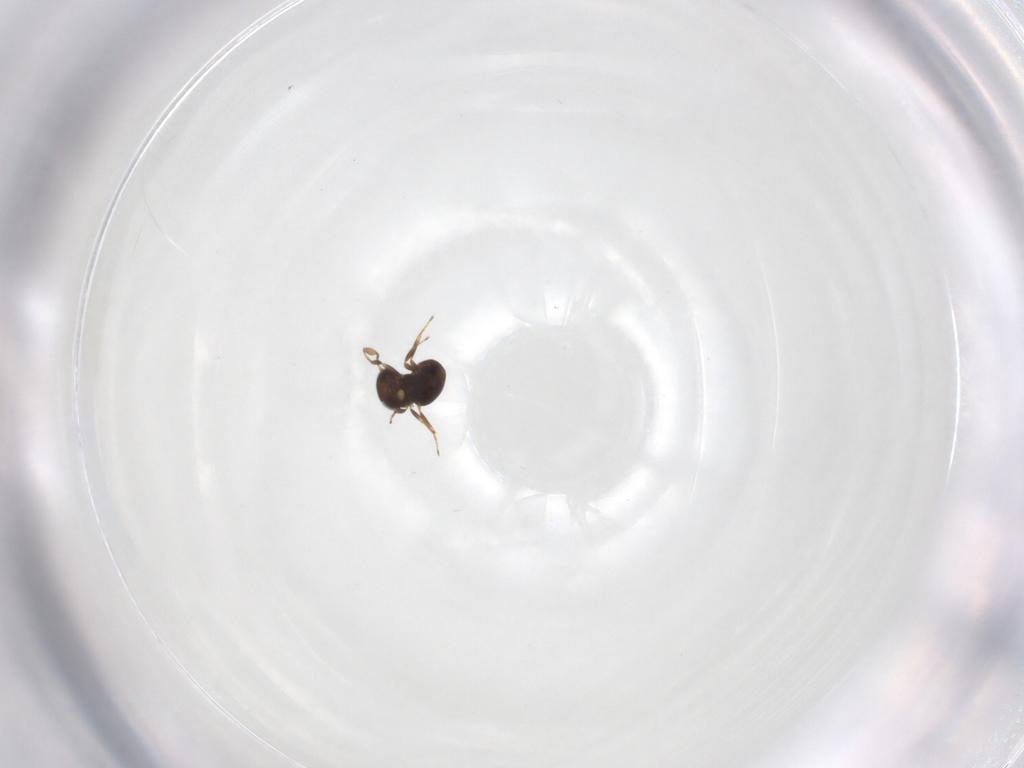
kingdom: Animalia
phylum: Arthropoda
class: Insecta
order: Hymenoptera
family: Scelionidae
